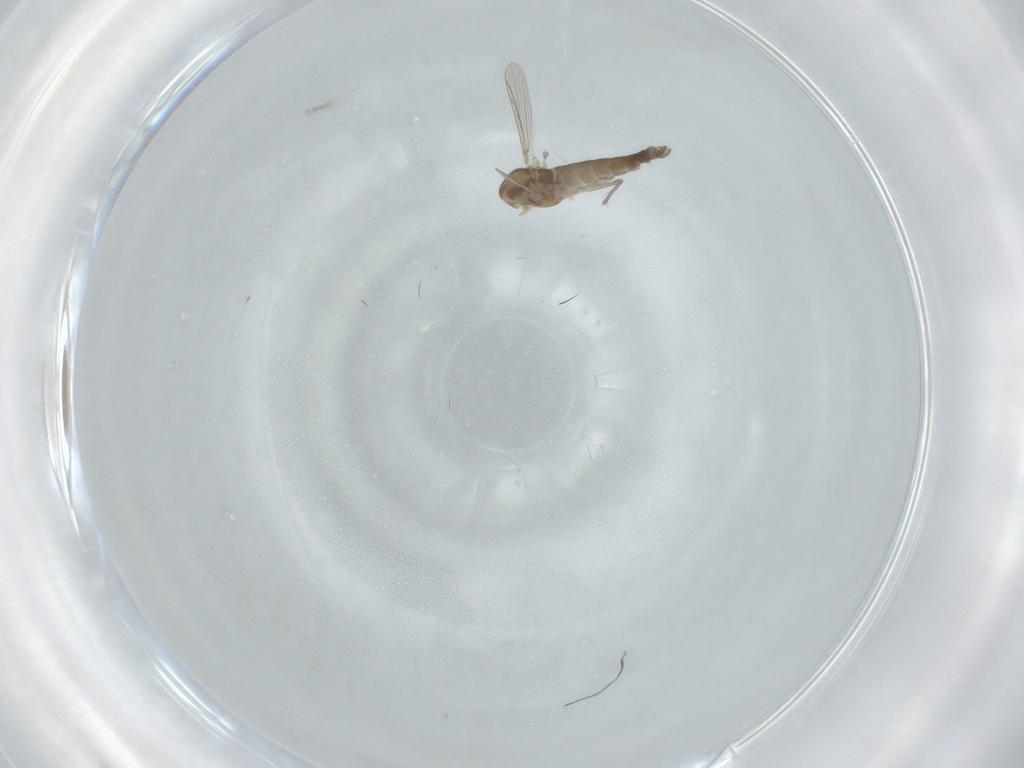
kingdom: Animalia
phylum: Arthropoda
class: Insecta
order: Diptera
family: Chironomidae
